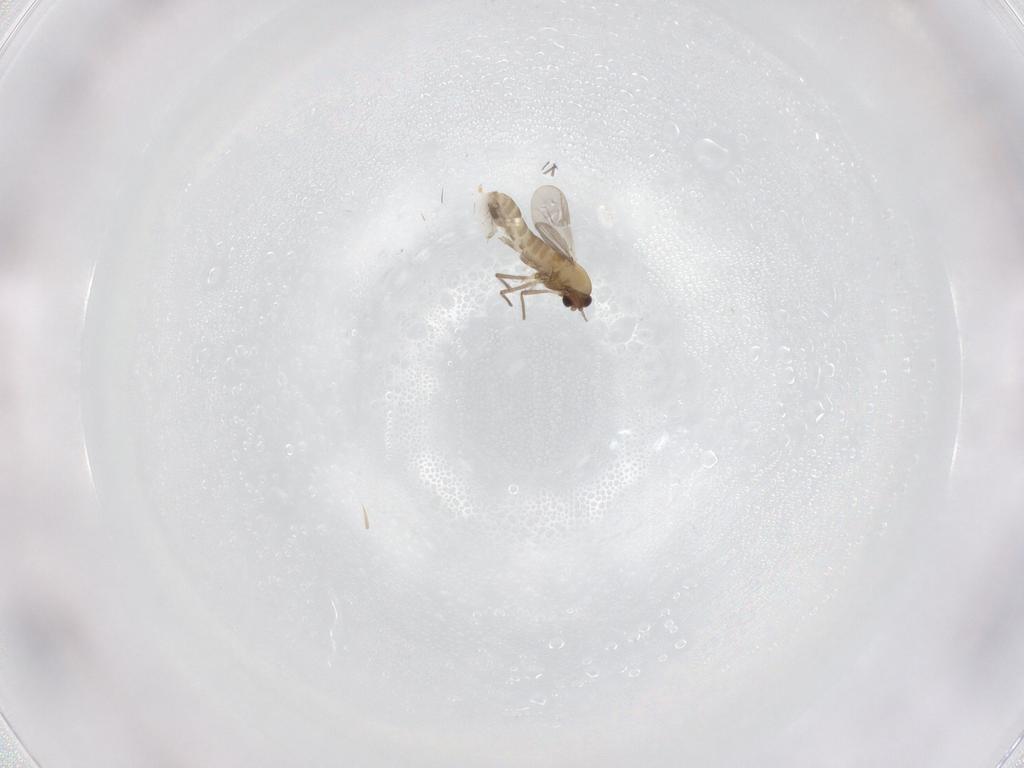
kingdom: Animalia
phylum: Arthropoda
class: Insecta
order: Diptera
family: Chironomidae
